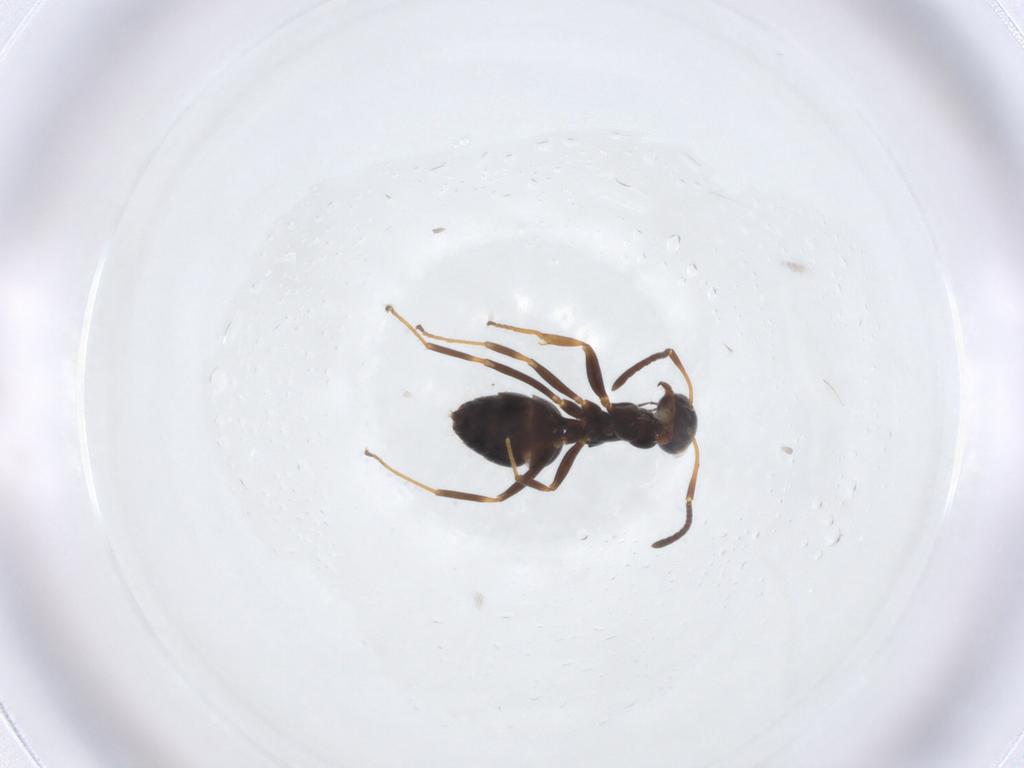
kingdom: Animalia
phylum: Arthropoda
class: Insecta
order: Hymenoptera
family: Formicidae
